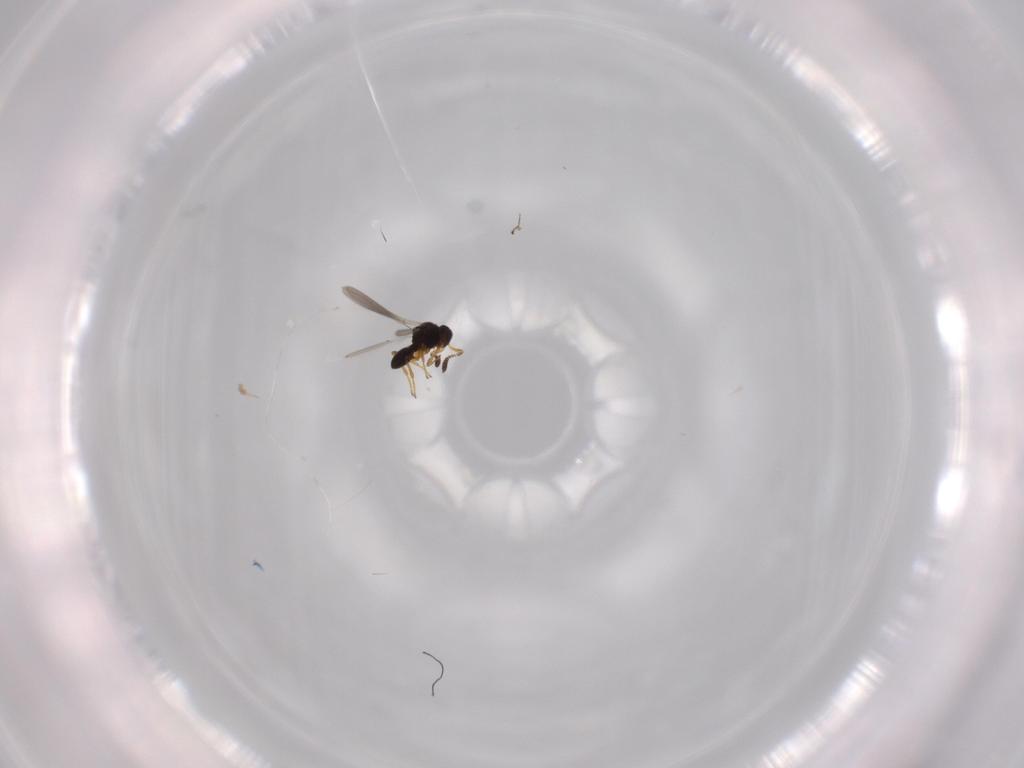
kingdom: Animalia
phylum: Arthropoda
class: Insecta
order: Hymenoptera
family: Platygastridae
